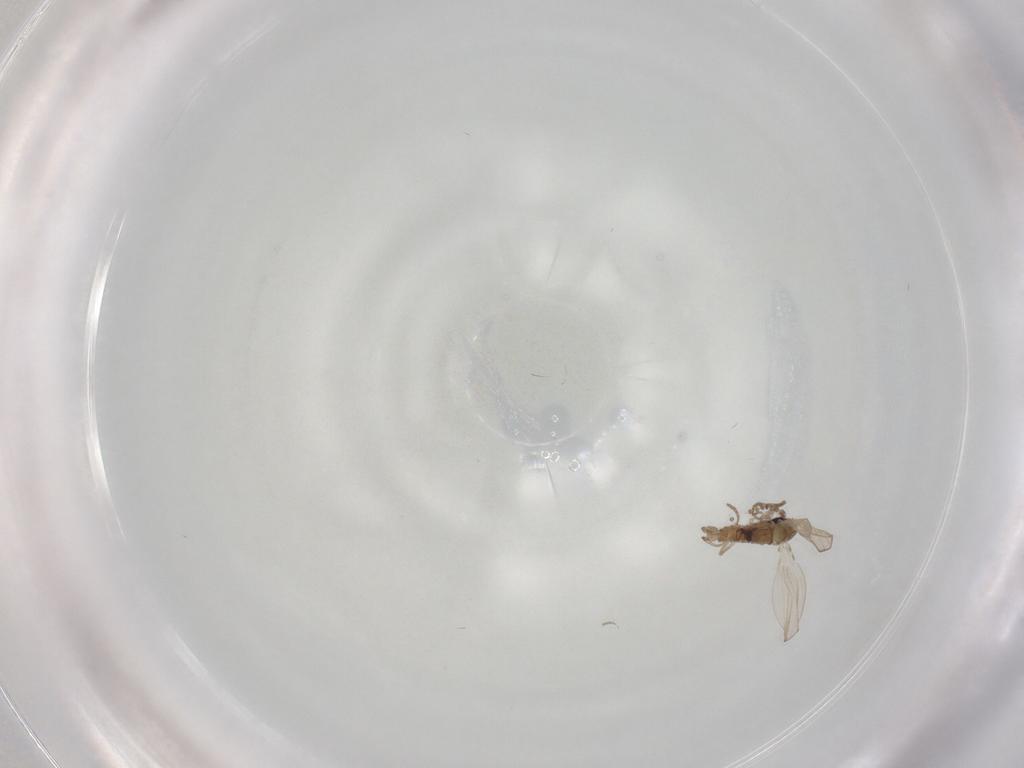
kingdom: Animalia
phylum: Arthropoda
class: Insecta
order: Diptera
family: Psychodidae
